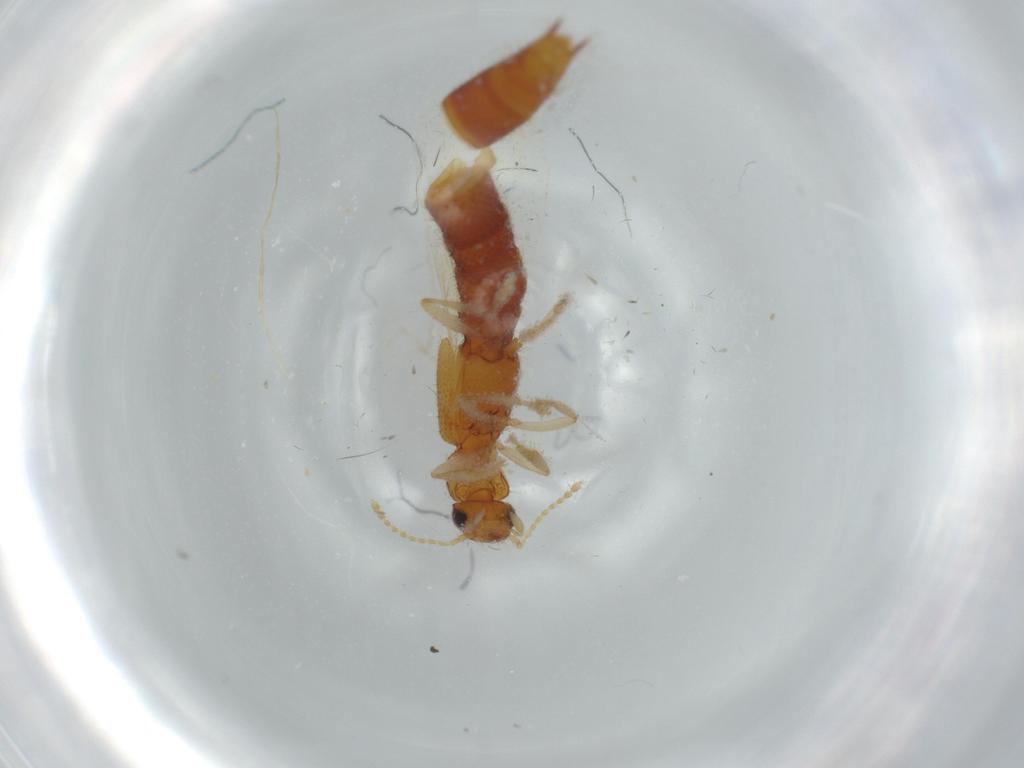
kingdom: Animalia
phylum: Arthropoda
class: Insecta
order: Coleoptera
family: Staphylinidae
